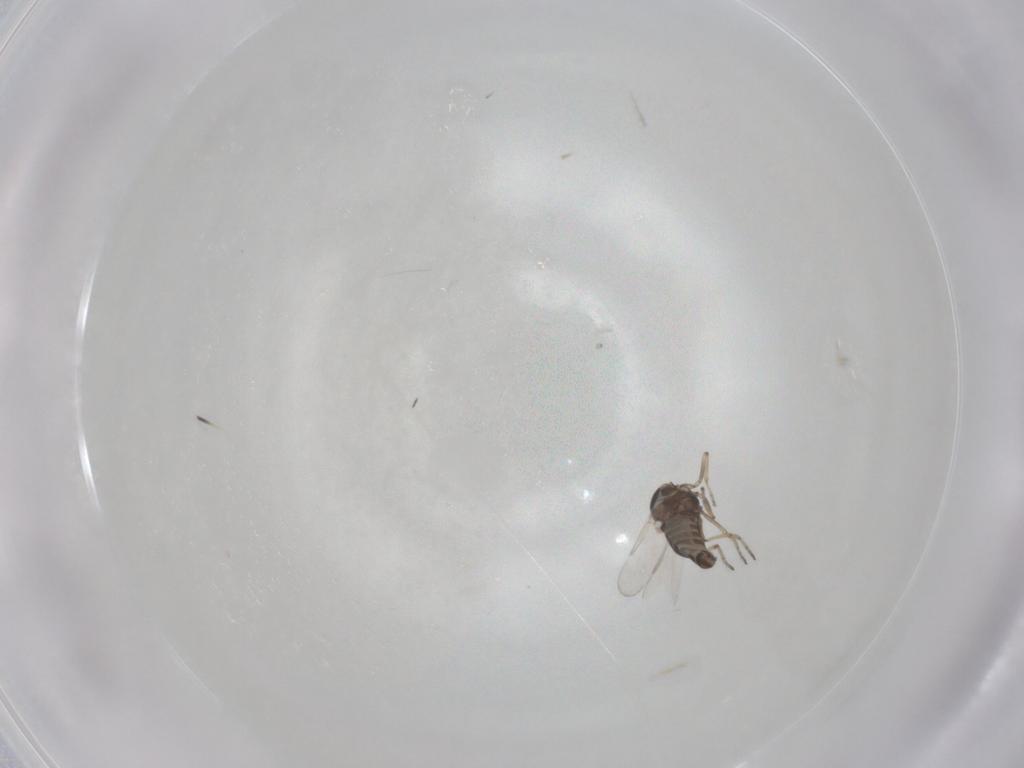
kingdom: Animalia
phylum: Arthropoda
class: Insecta
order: Diptera
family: Ceratopogonidae
